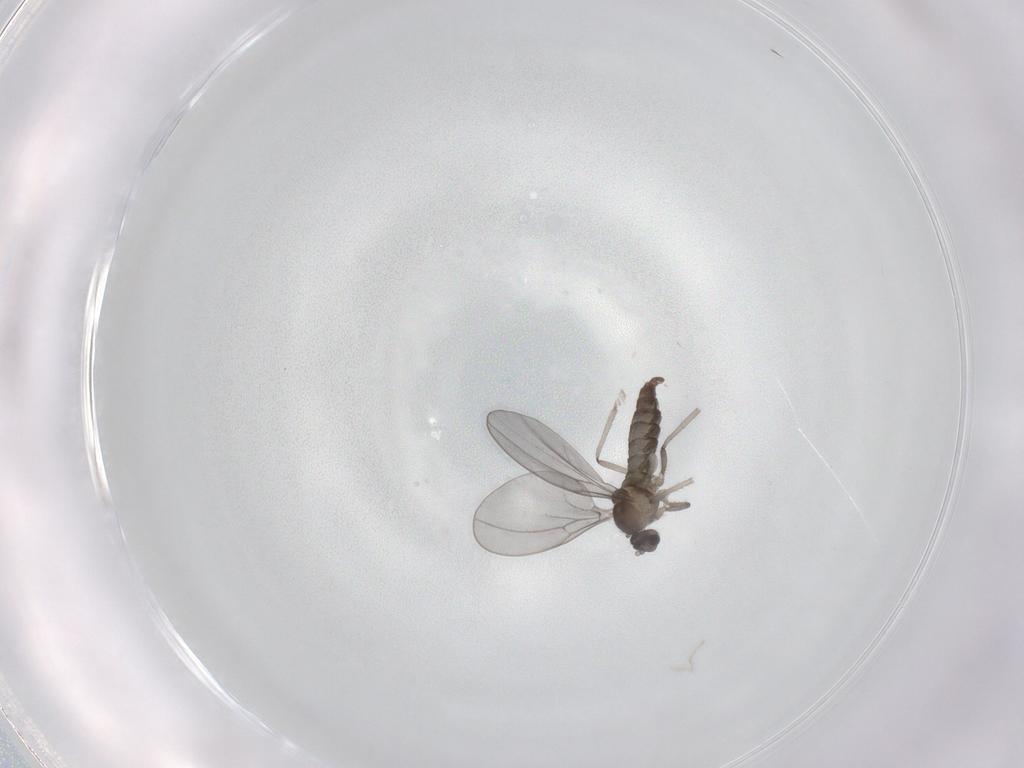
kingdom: Animalia
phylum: Arthropoda
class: Insecta
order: Diptera
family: Cecidomyiidae
